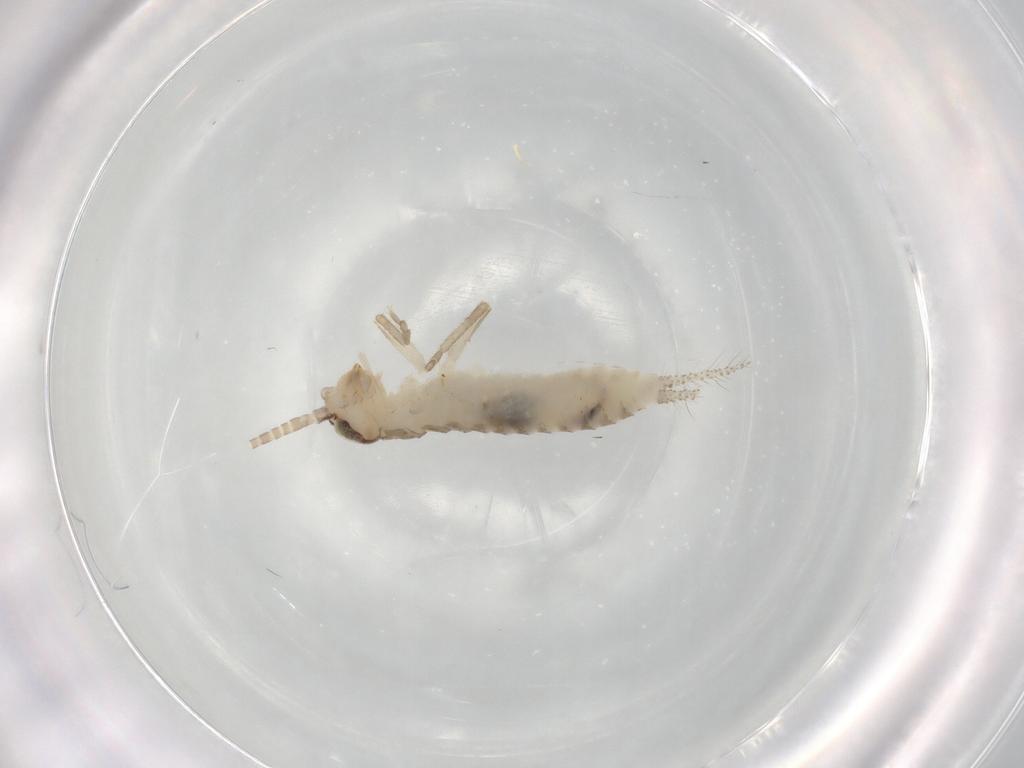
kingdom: Animalia
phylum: Arthropoda
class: Insecta
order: Orthoptera
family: Gryllidae
